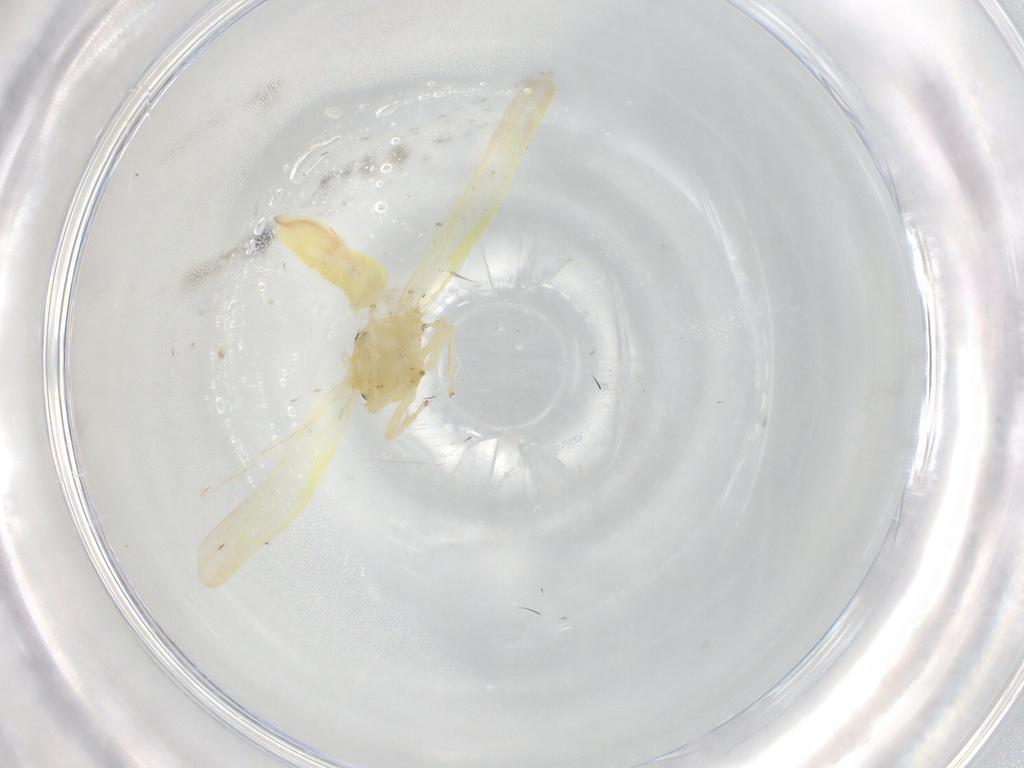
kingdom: Animalia
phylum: Arthropoda
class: Insecta
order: Hemiptera
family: Cicadellidae
